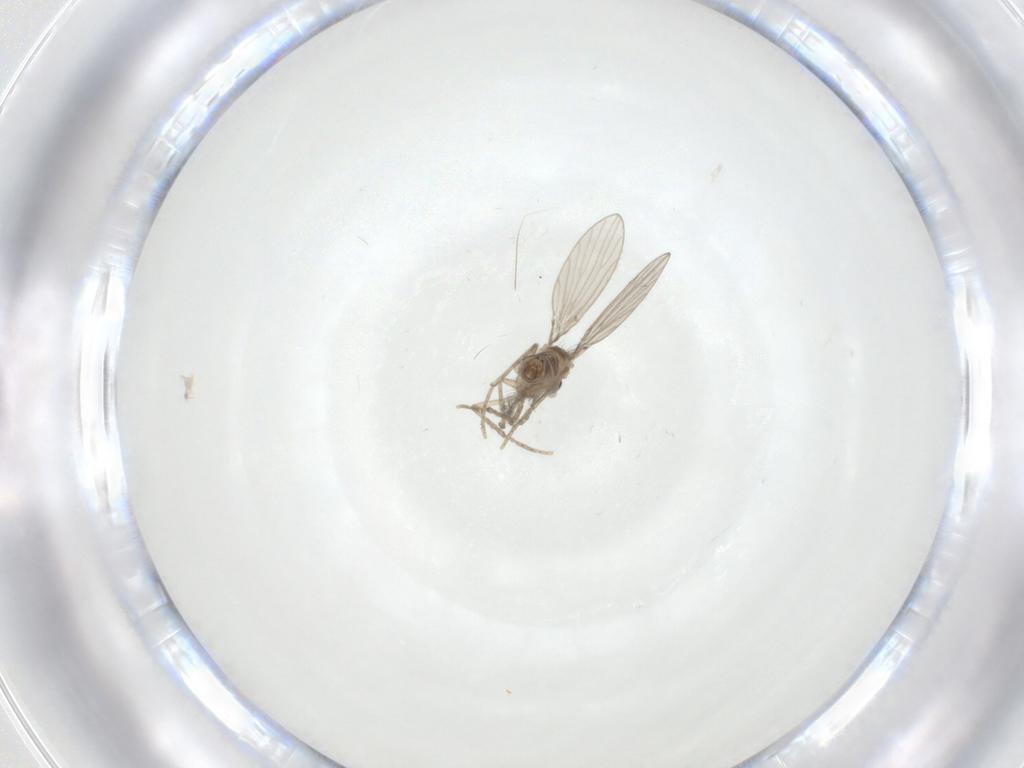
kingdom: Animalia
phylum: Arthropoda
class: Insecta
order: Diptera
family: Psychodidae
